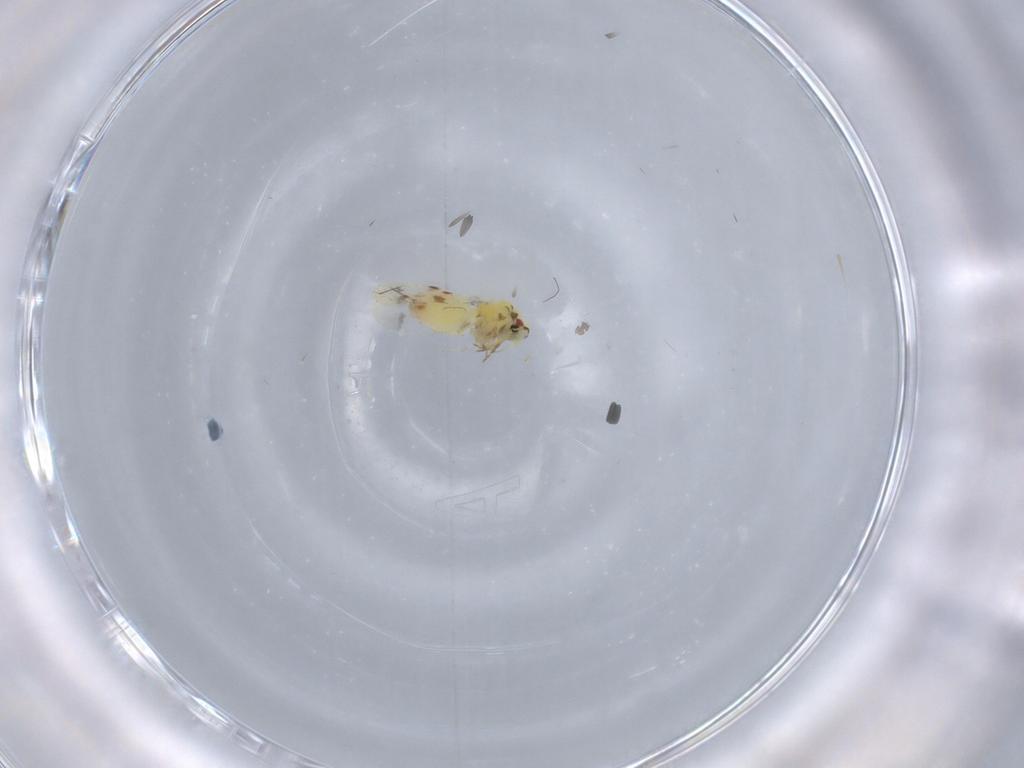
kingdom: Animalia
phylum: Arthropoda
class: Insecta
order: Hemiptera
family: Aleyrodidae
